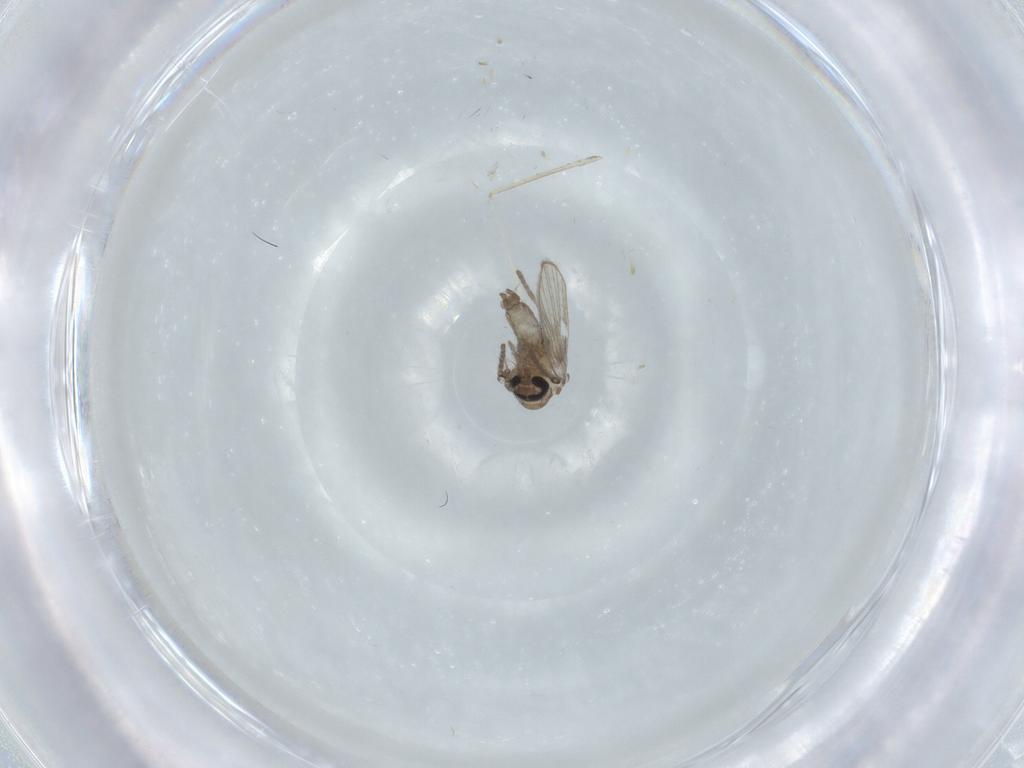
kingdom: Animalia
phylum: Arthropoda
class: Insecta
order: Diptera
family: Psychodidae
